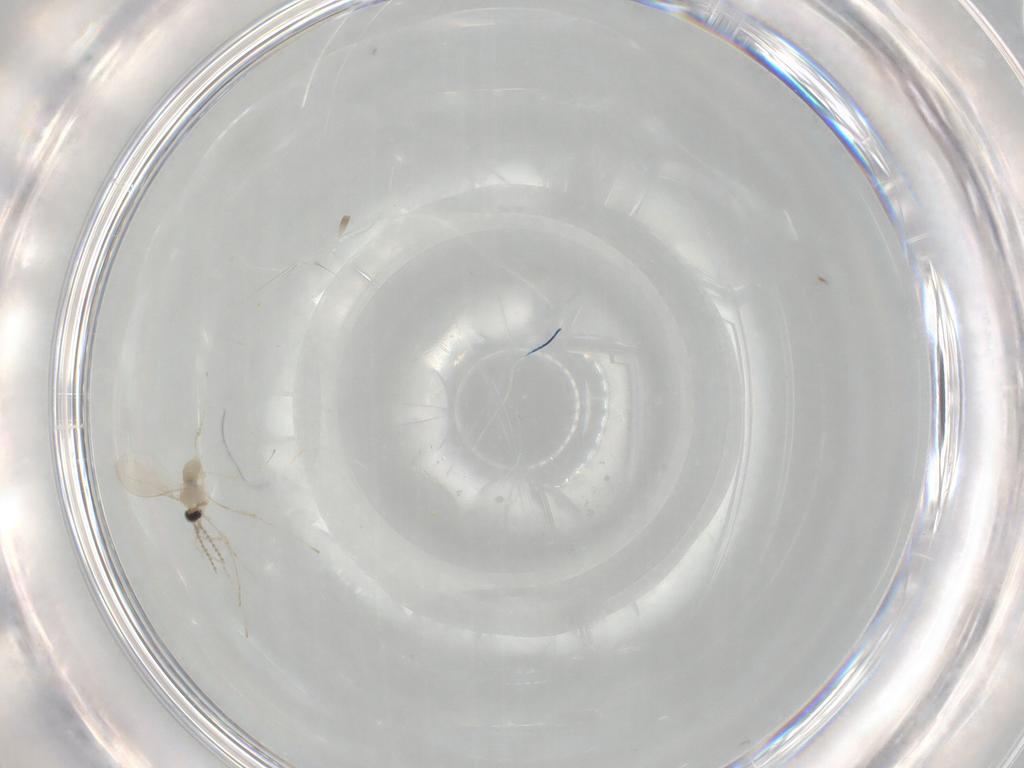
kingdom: Animalia
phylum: Arthropoda
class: Insecta
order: Diptera
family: Cecidomyiidae
